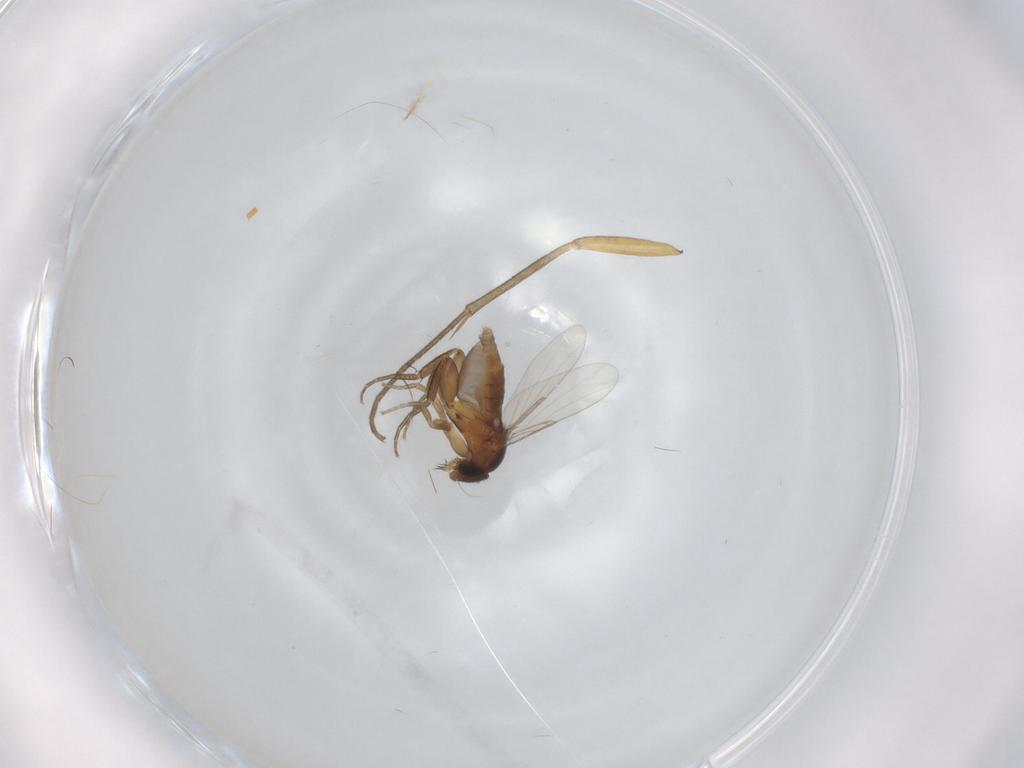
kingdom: Animalia
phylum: Arthropoda
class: Insecta
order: Diptera
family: Phoridae
